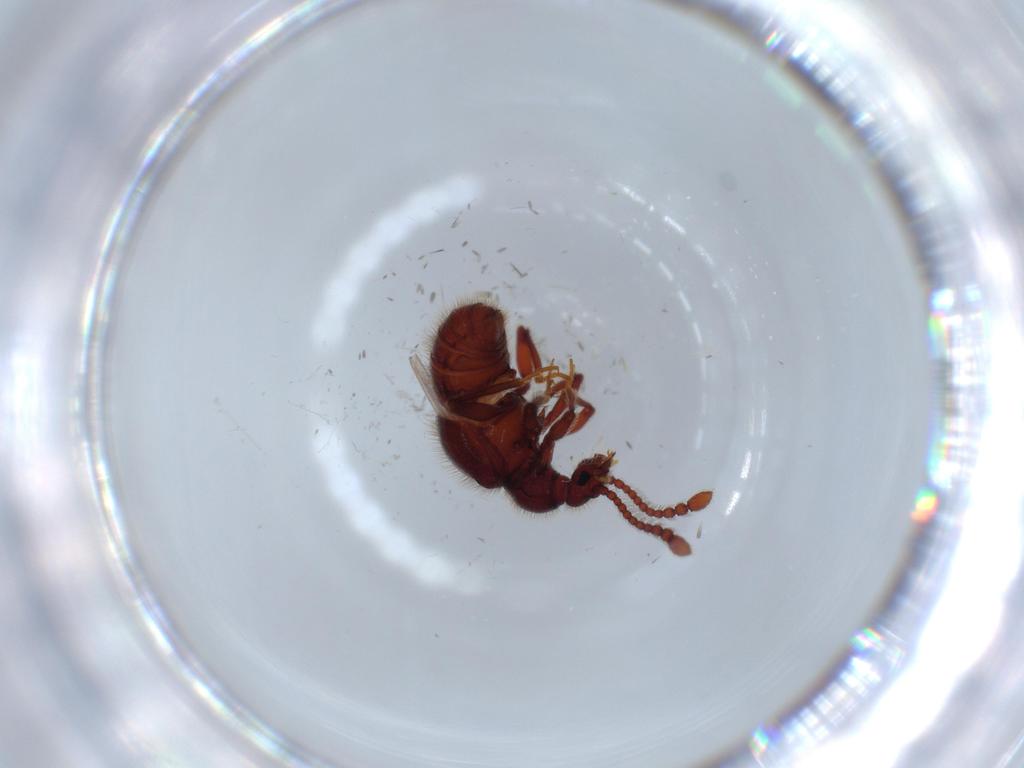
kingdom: Animalia
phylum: Arthropoda
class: Insecta
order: Coleoptera
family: Staphylinidae
